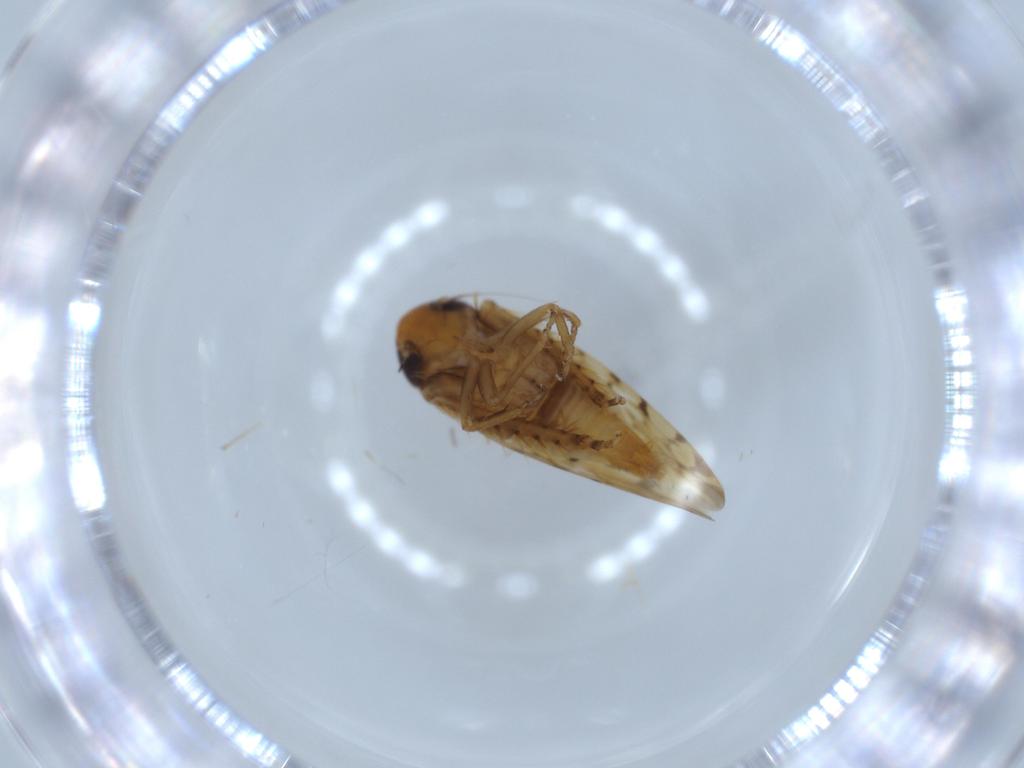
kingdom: Animalia
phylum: Arthropoda
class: Insecta
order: Hemiptera
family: Cicadellidae
